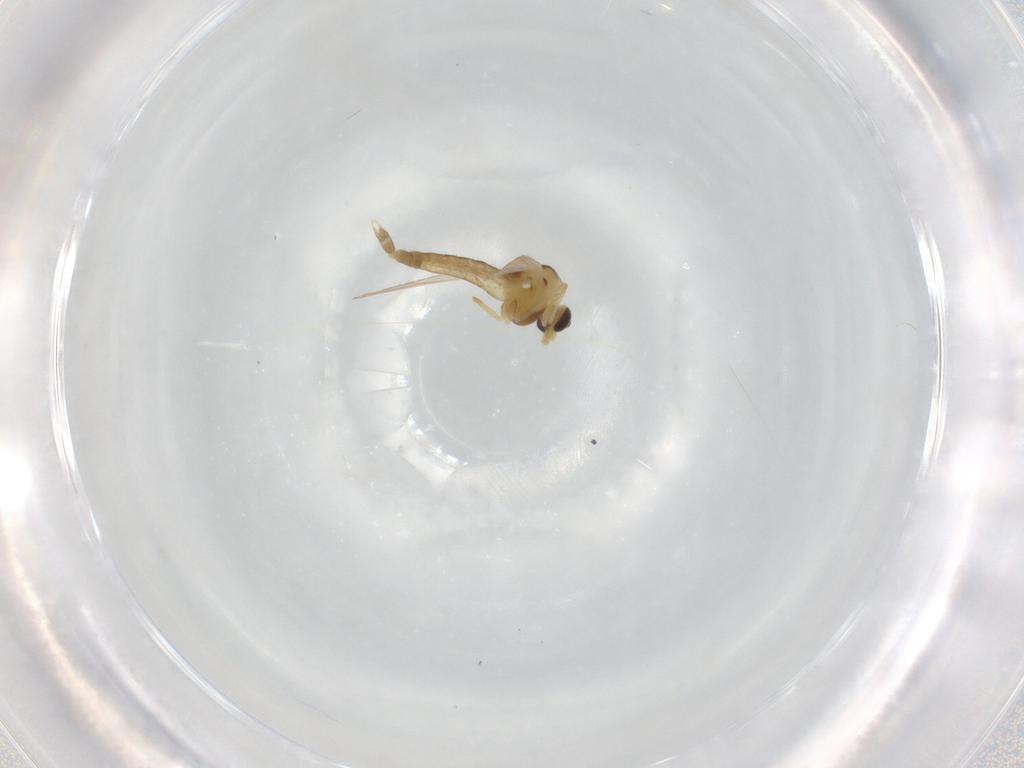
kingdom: Animalia
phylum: Arthropoda
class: Insecta
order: Diptera
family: Chironomidae
